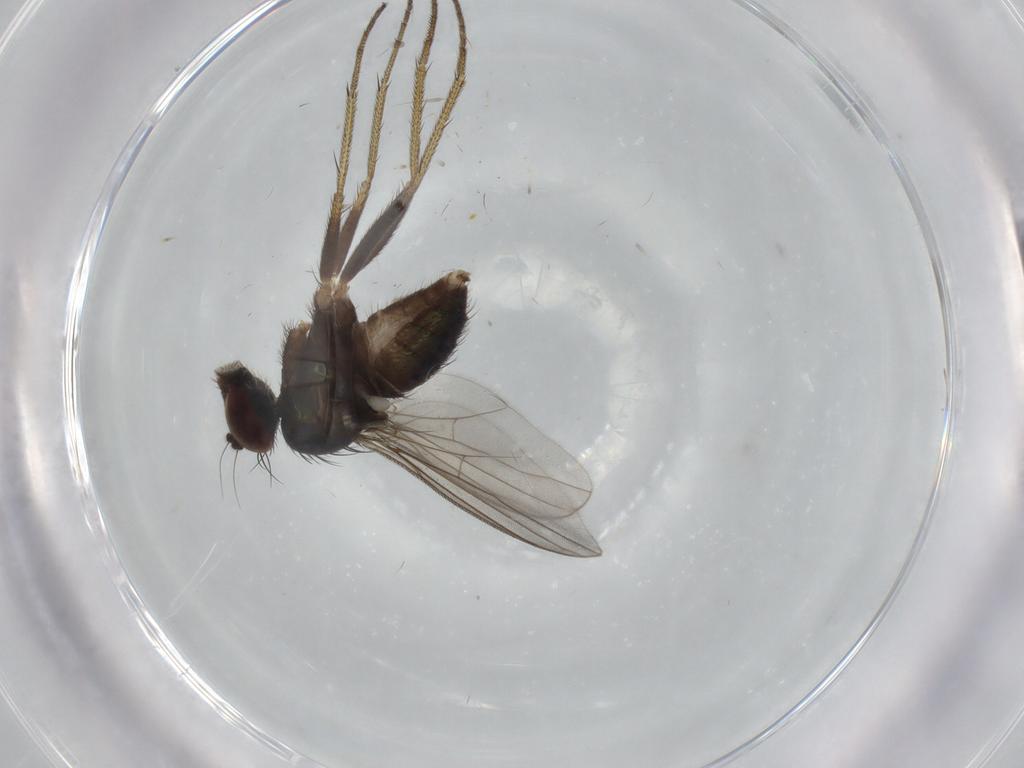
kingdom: Animalia
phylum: Arthropoda
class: Insecta
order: Diptera
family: Dolichopodidae
